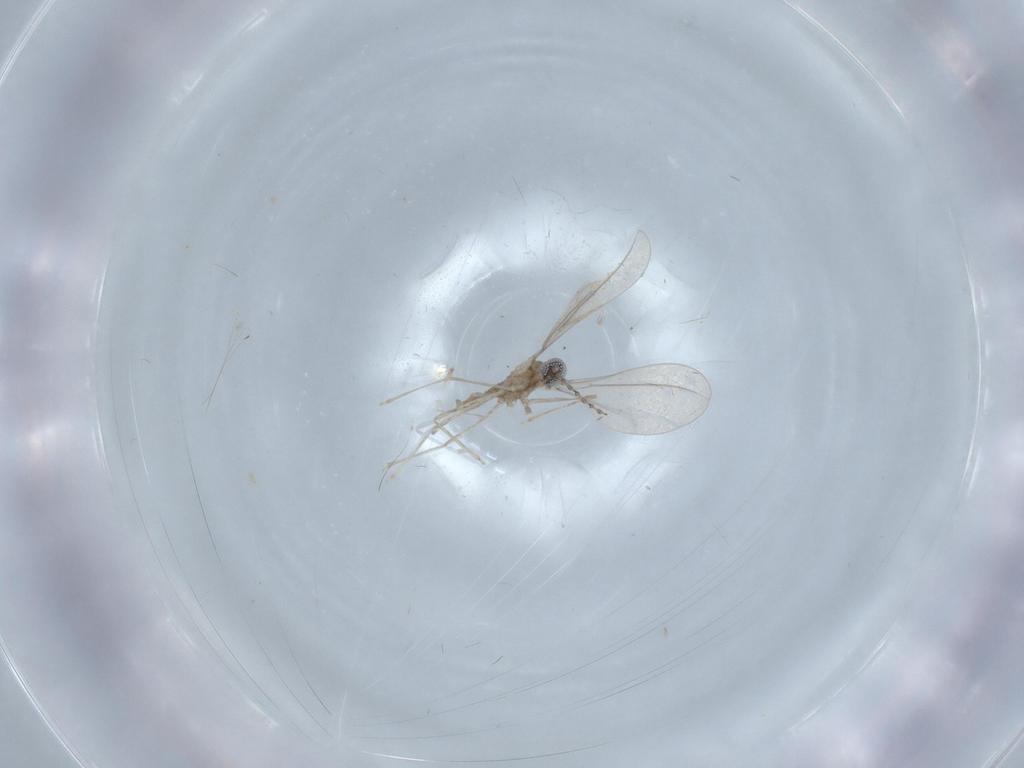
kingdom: Animalia
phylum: Arthropoda
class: Insecta
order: Diptera
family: Cecidomyiidae
